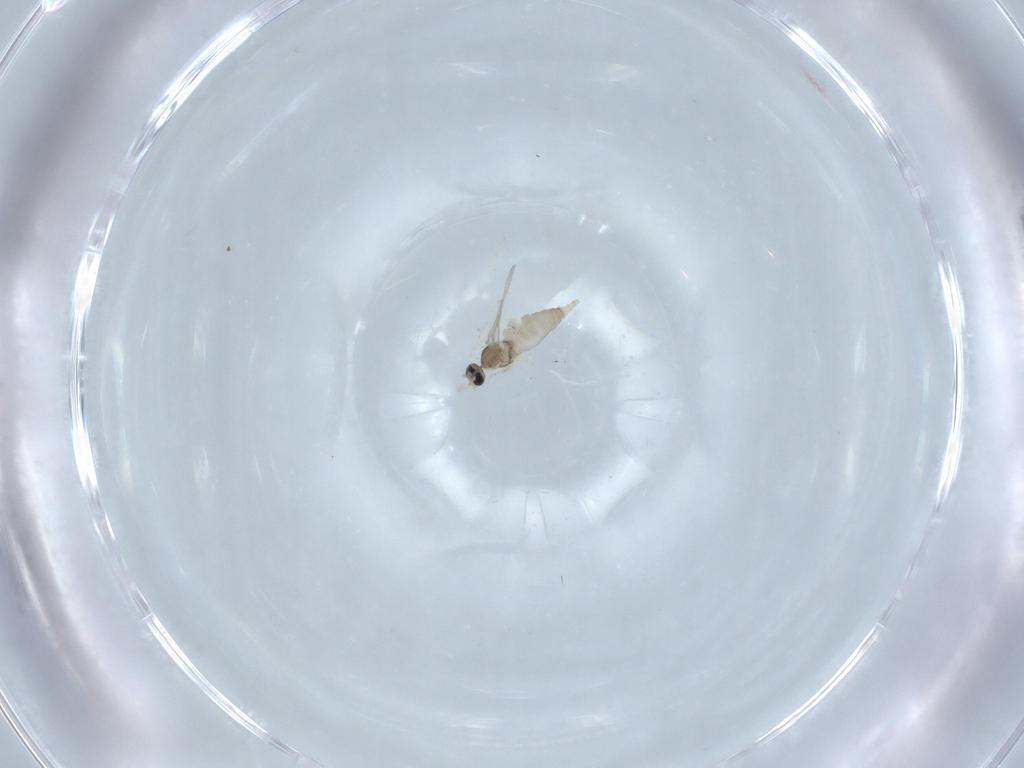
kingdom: Animalia
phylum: Arthropoda
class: Insecta
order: Diptera
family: Cecidomyiidae
